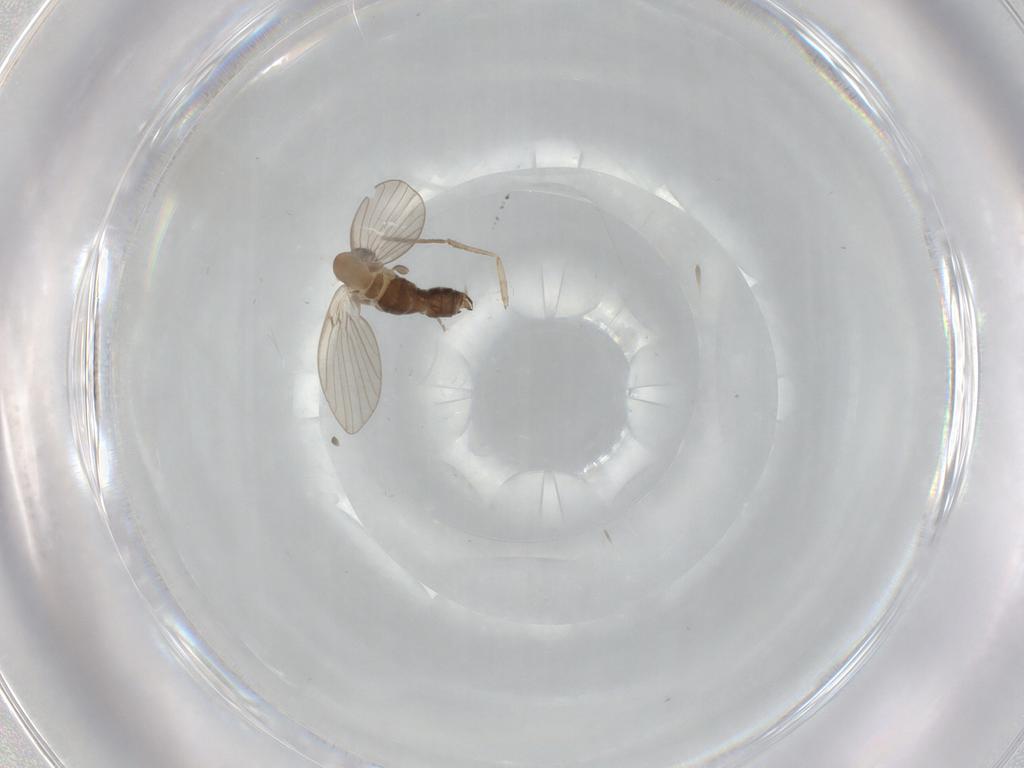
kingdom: Animalia
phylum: Arthropoda
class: Insecta
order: Diptera
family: Psychodidae
